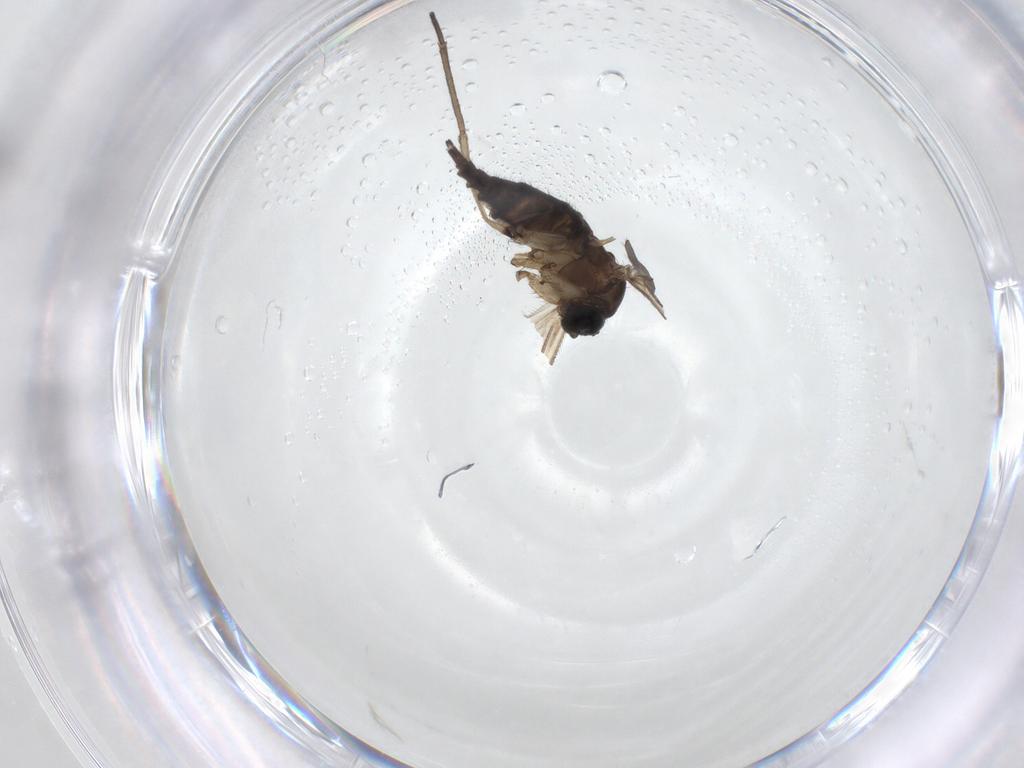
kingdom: Animalia
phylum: Arthropoda
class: Insecta
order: Diptera
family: Sciaridae
